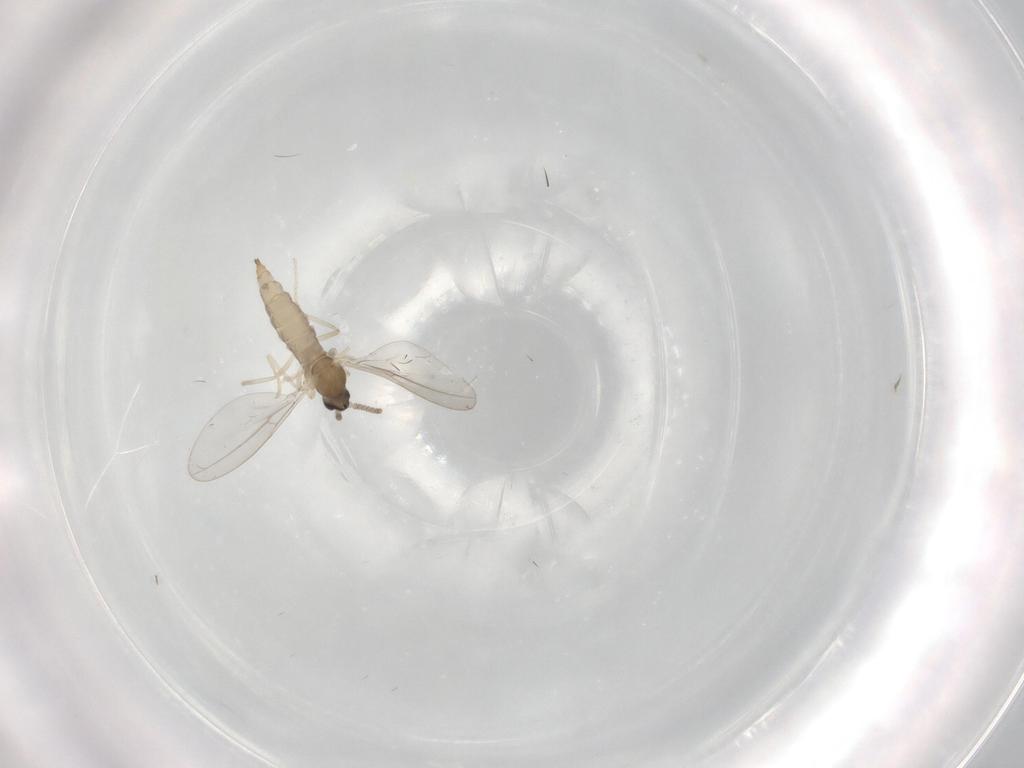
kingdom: Animalia
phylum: Arthropoda
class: Insecta
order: Diptera
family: Cecidomyiidae
